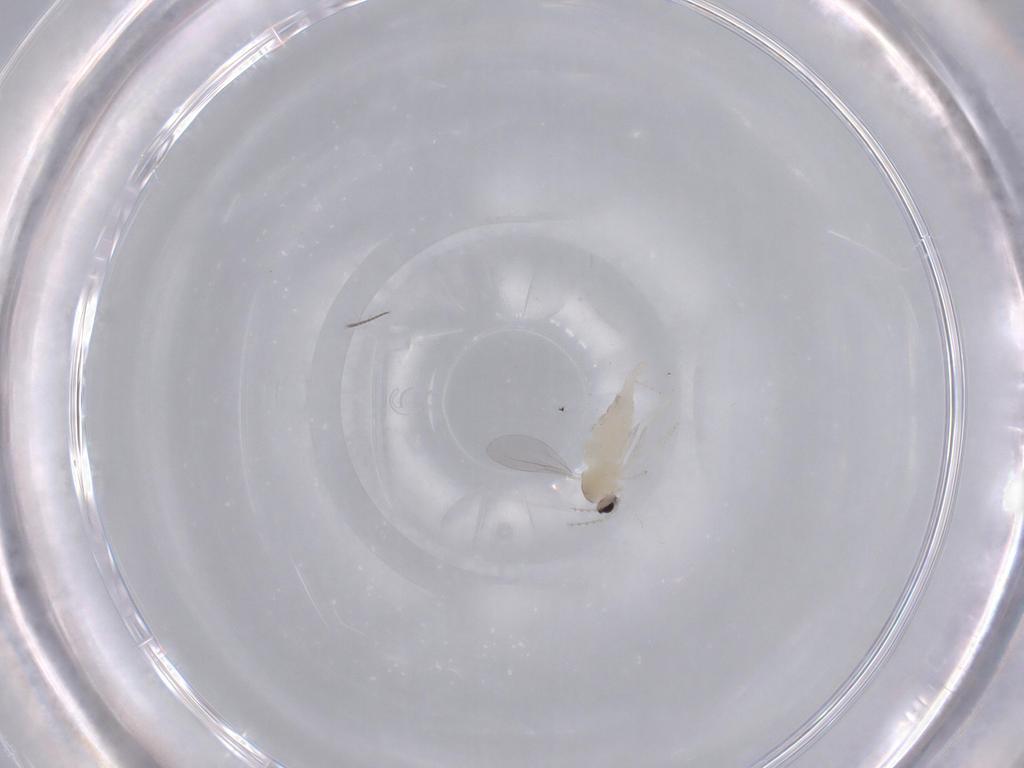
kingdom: Animalia
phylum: Arthropoda
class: Insecta
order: Diptera
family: Cecidomyiidae
